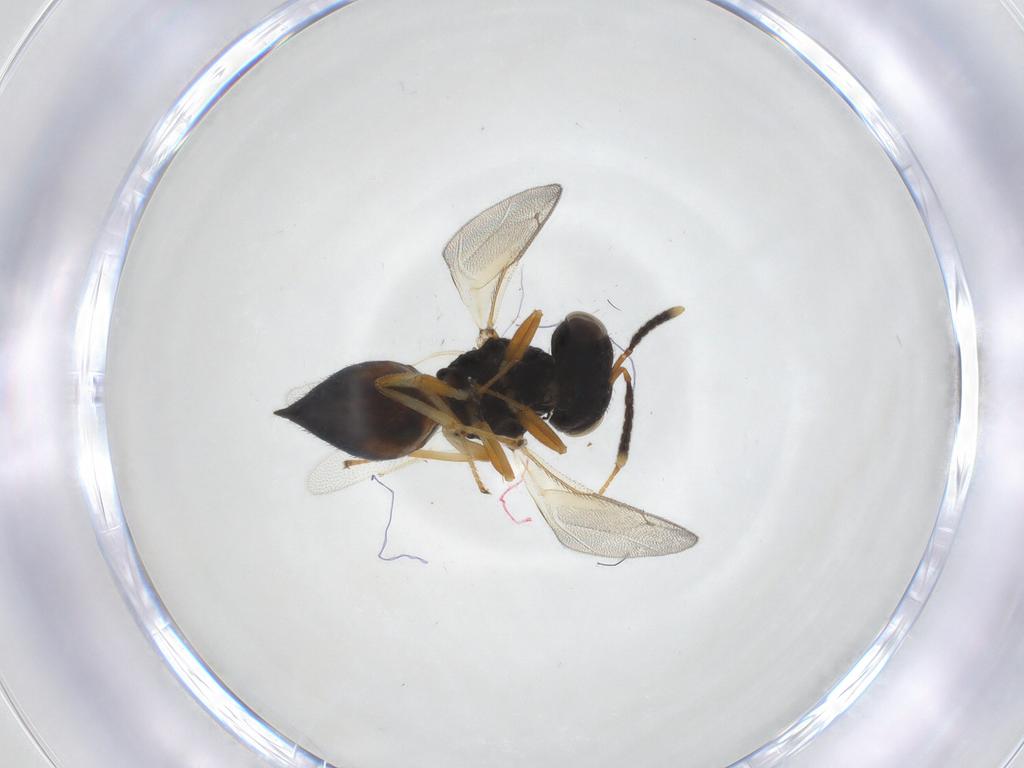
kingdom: Animalia
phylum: Arthropoda
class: Insecta
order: Hymenoptera
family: Pteromalidae
